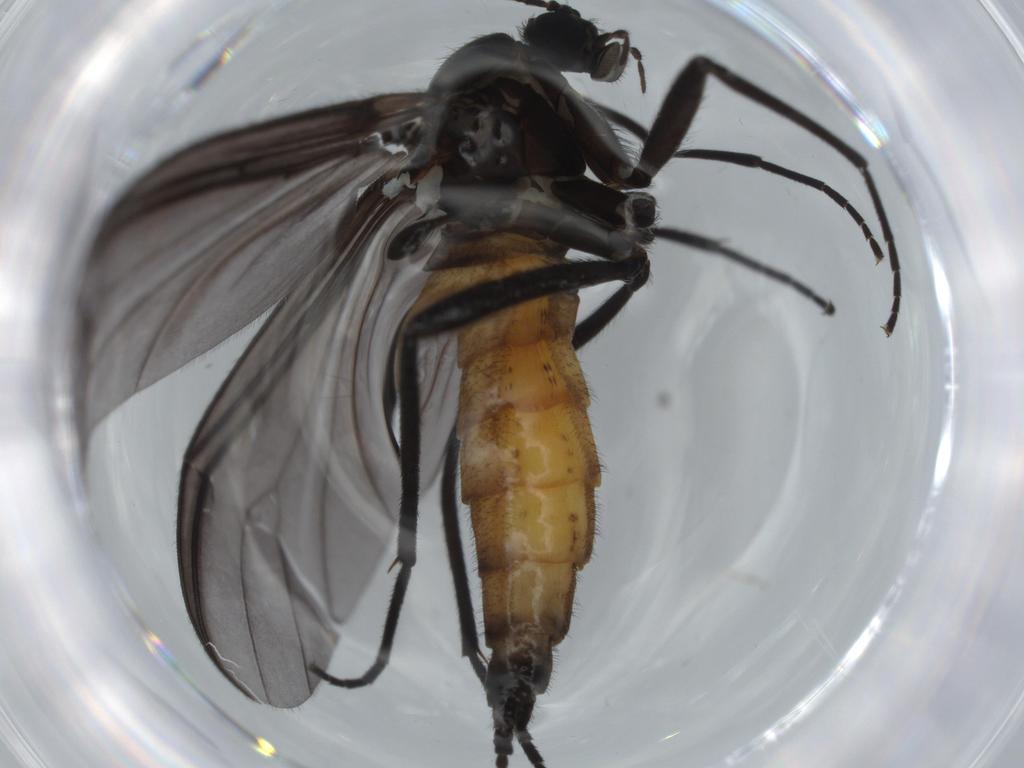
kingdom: Animalia
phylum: Arthropoda
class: Insecta
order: Diptera
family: Cecidomyiidae
